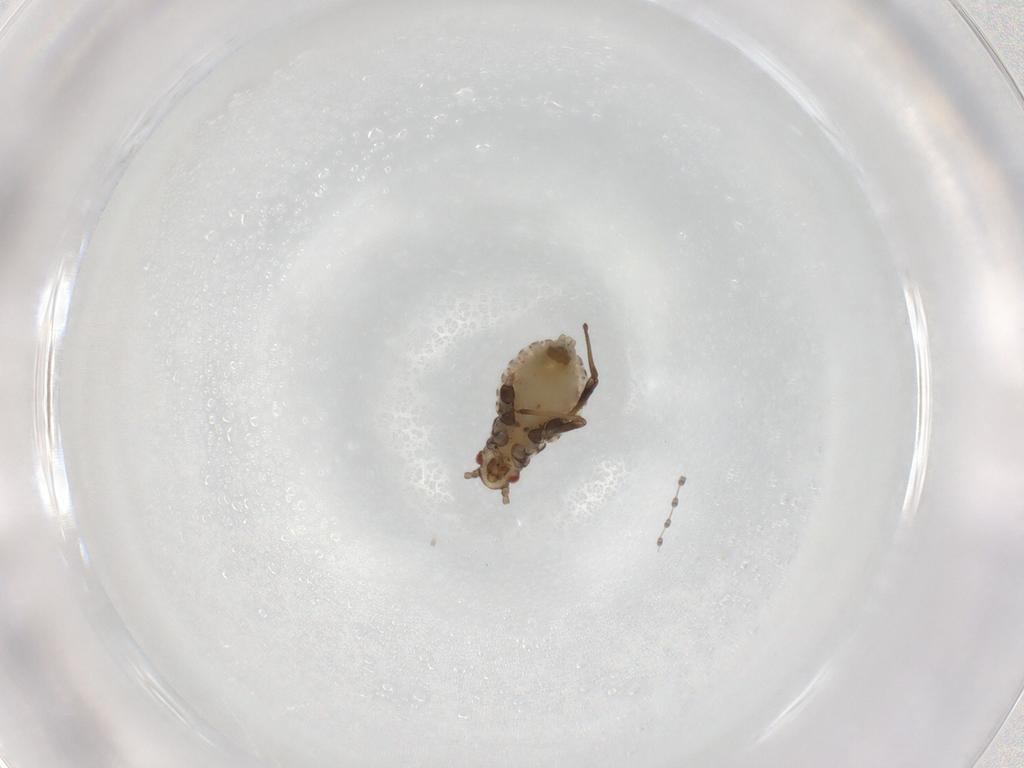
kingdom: Animalia
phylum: Arthropoda
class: Insecta
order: Hemiptera
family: Aphididae
